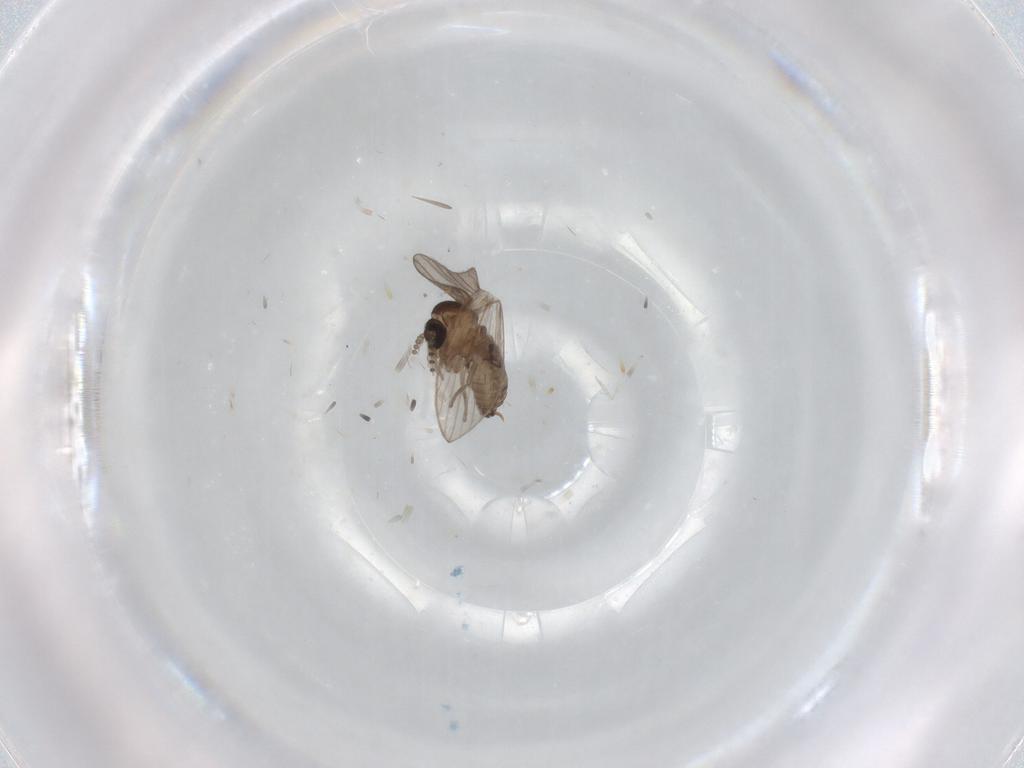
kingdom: Animalia
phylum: Arthropoda
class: Insecta
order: Diptera
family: Psychodidae
